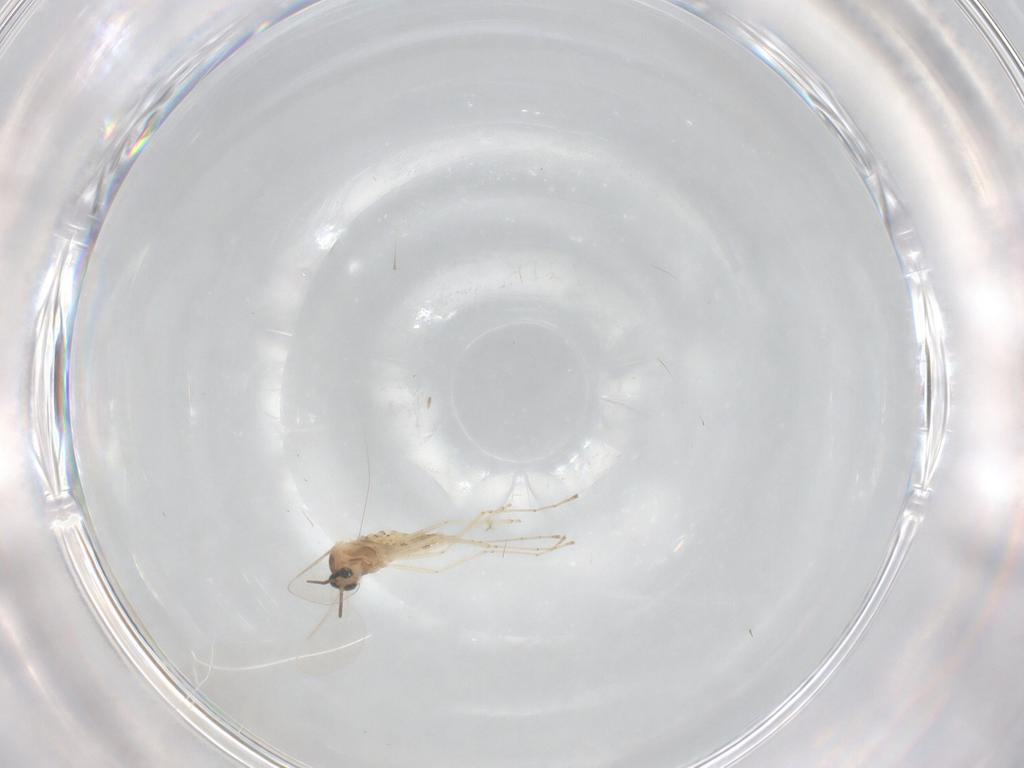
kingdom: Animalia
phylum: Arthropoda
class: Insecta
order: Diptera
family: Cecidomyiidae
